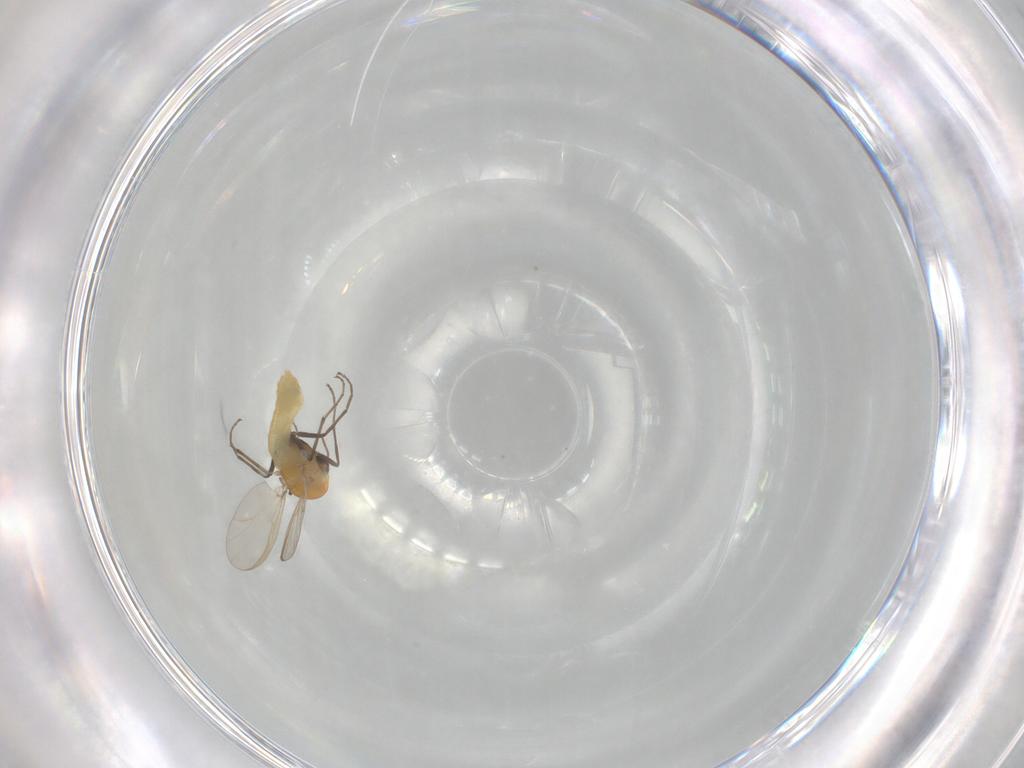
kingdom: Animalia
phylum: Arthropoda
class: Insecta
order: Diptera
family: Chironomidae
